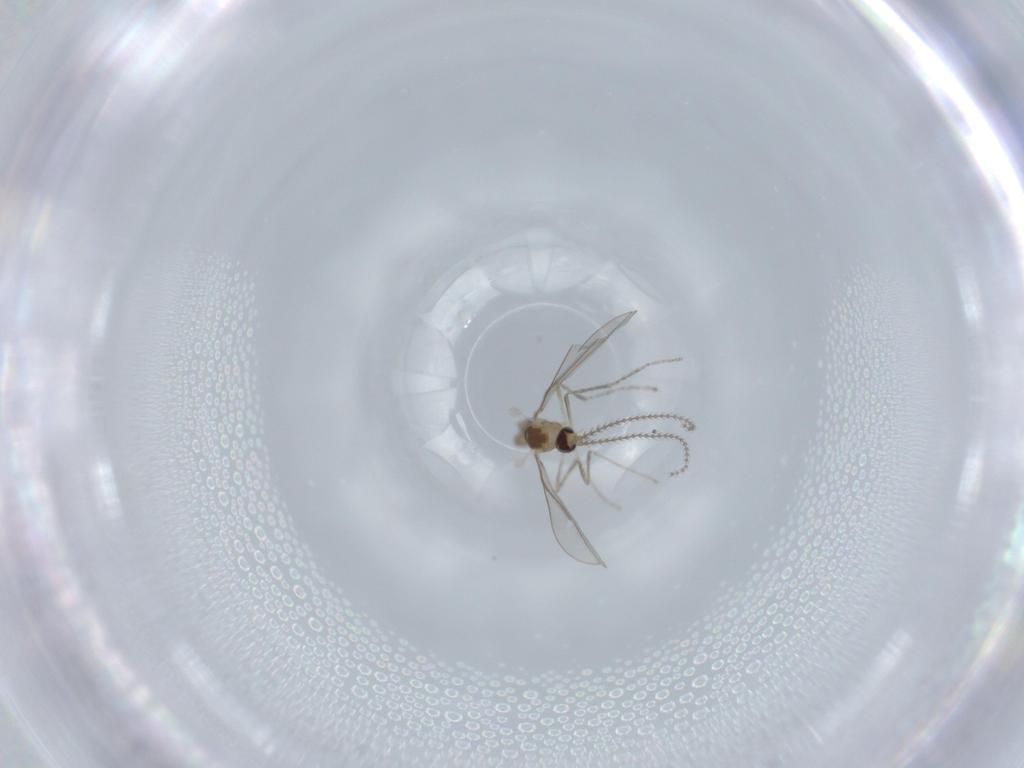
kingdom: Animalia
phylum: Arthropoda
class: Insecta
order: Diptera
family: Cecidomyiidae
